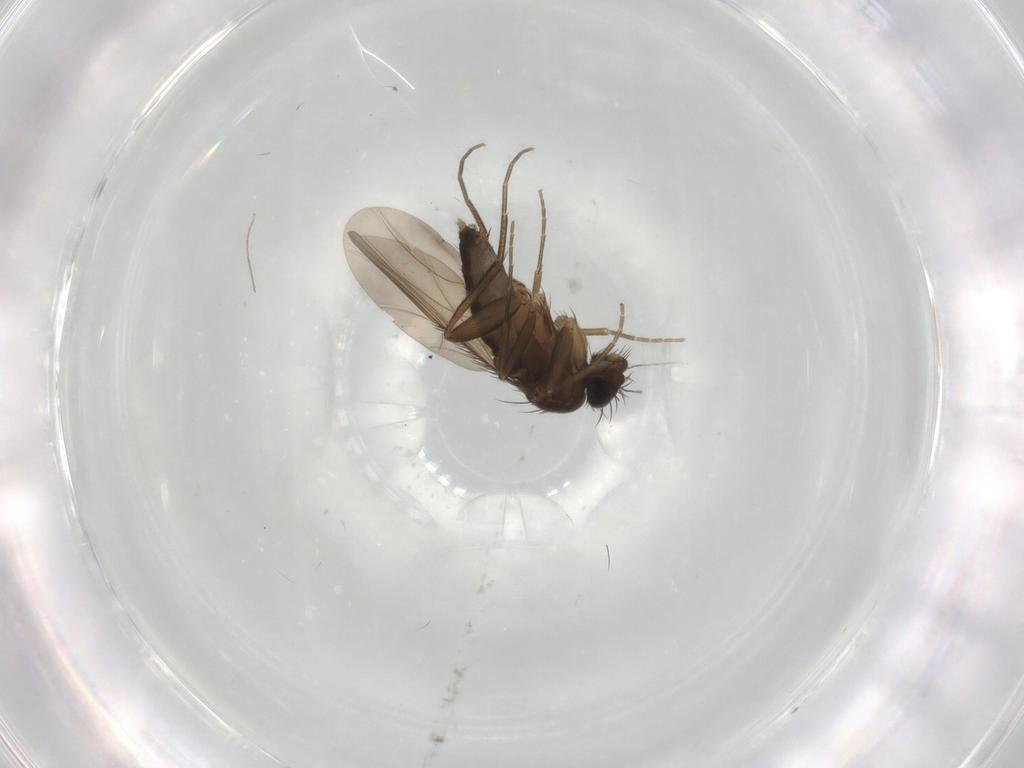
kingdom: Animalia
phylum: Arthropoda
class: Insecta
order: Diptera
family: Phoridae
